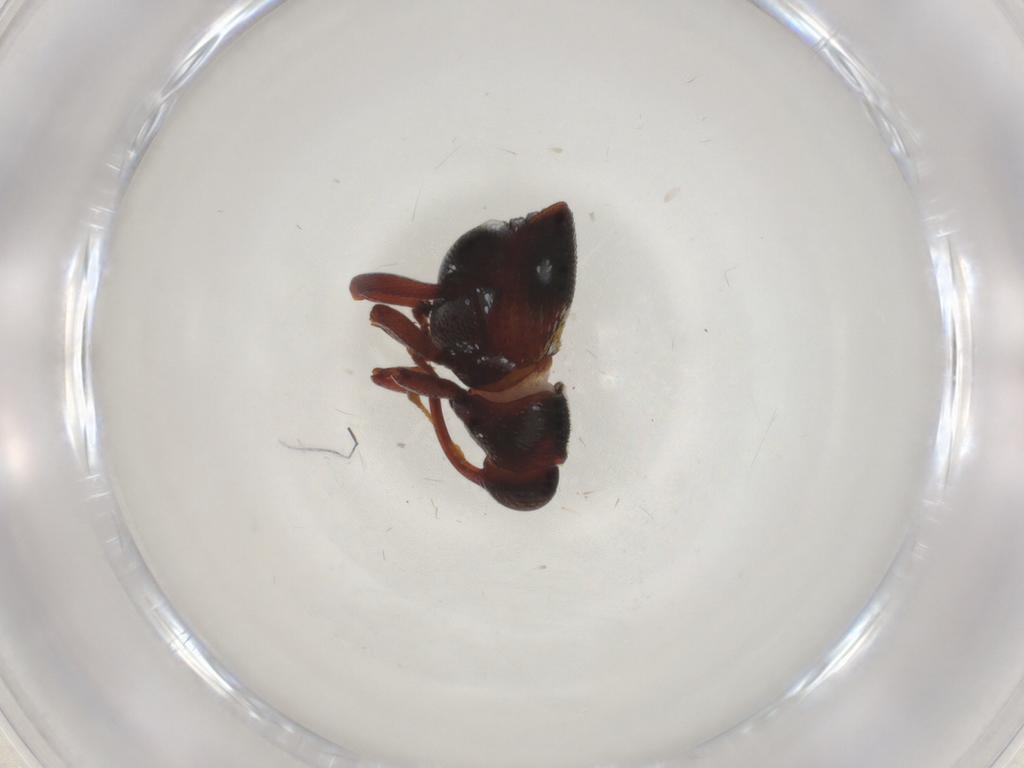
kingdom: Animalia
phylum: Arthropoda
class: Insecta
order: Coleoptera
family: Curculionidae
